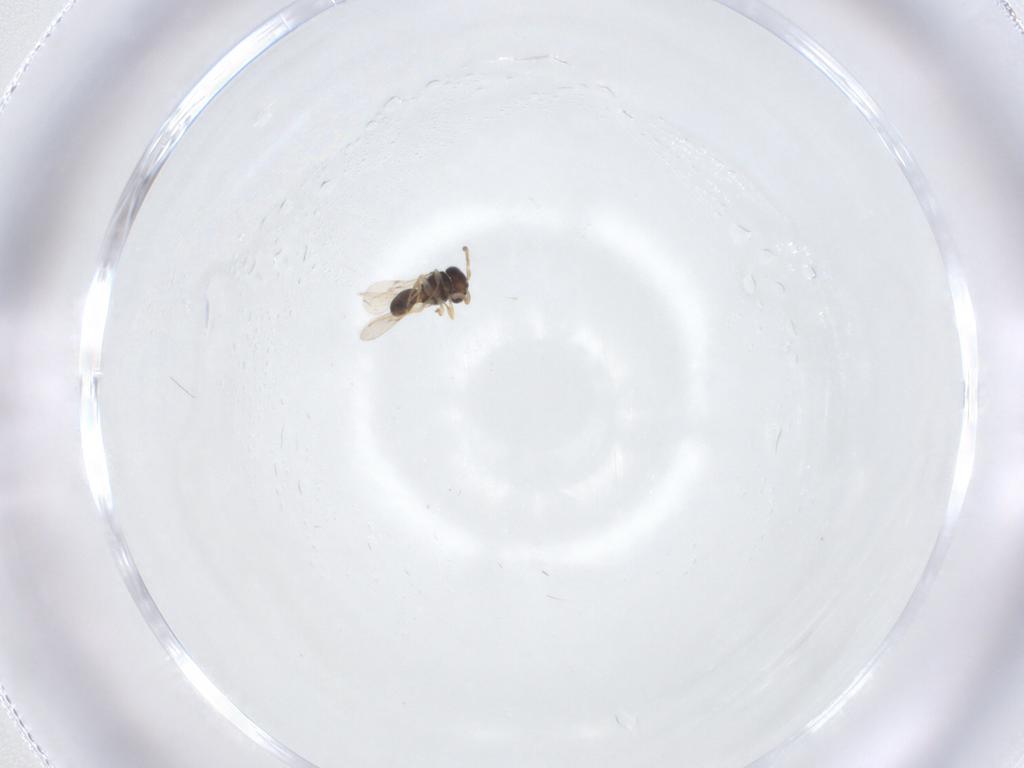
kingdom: Animalia
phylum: Arthropoda
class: Insecta
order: Hymenoptera
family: Scelionidae
